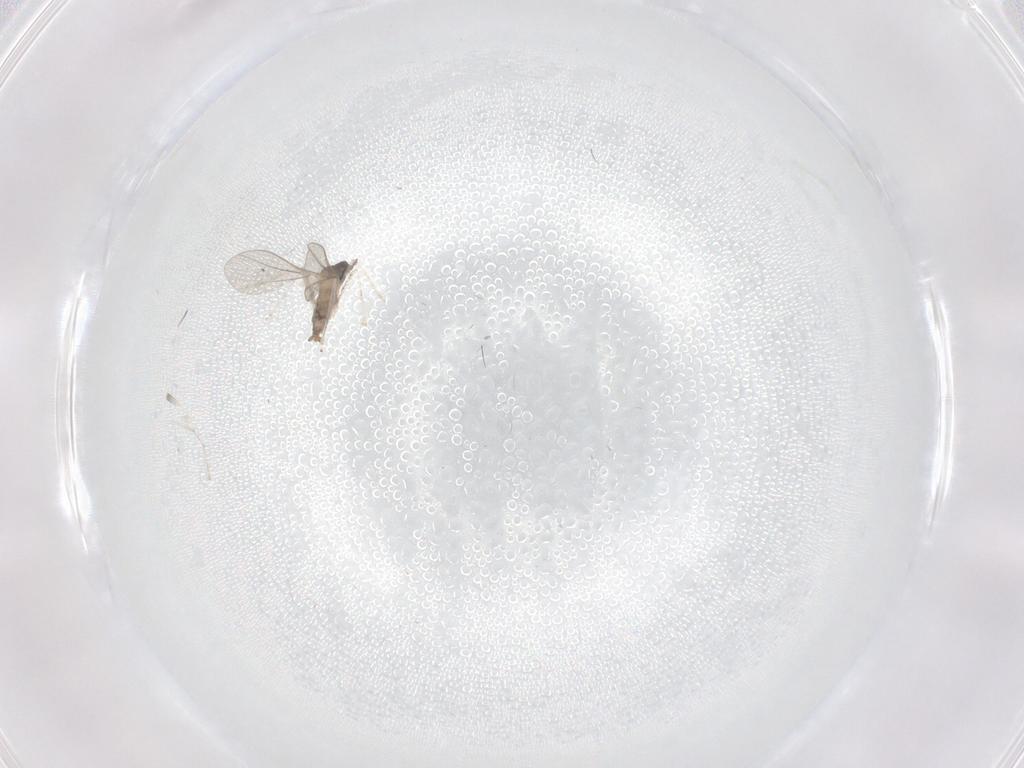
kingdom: Animalia
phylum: Arthropoda
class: Insecta
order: Diptera
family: Cecidomyiidae
